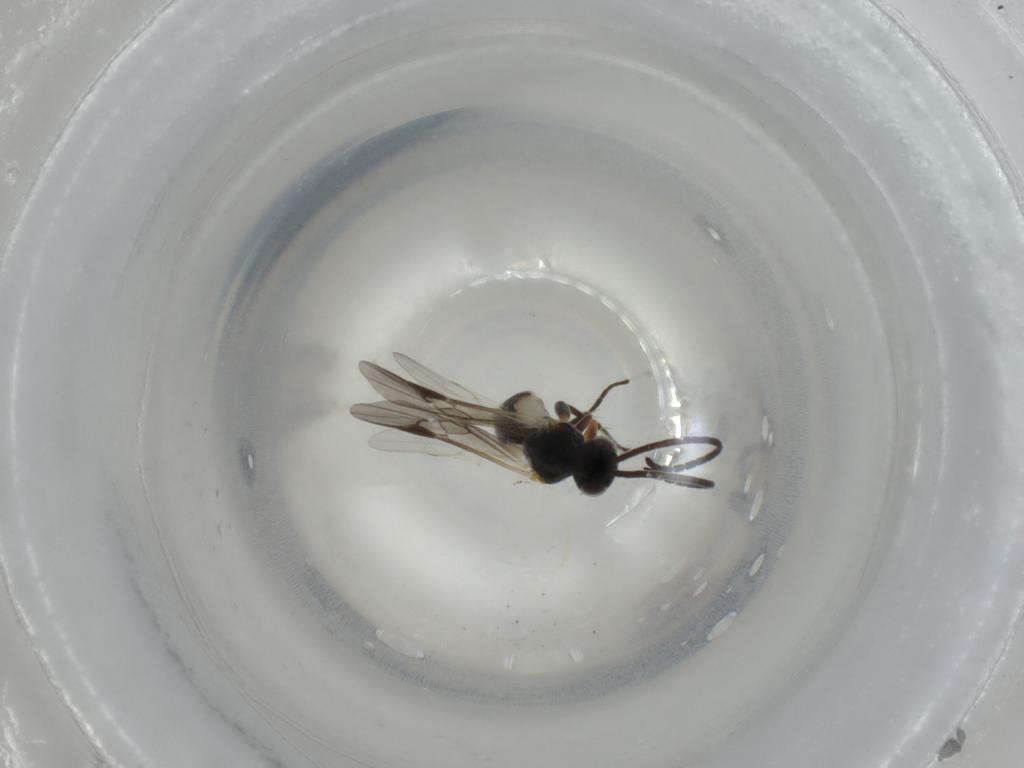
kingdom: Animalia
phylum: Arthropoda
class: Insecta
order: Hymenoptera
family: Braconidae
